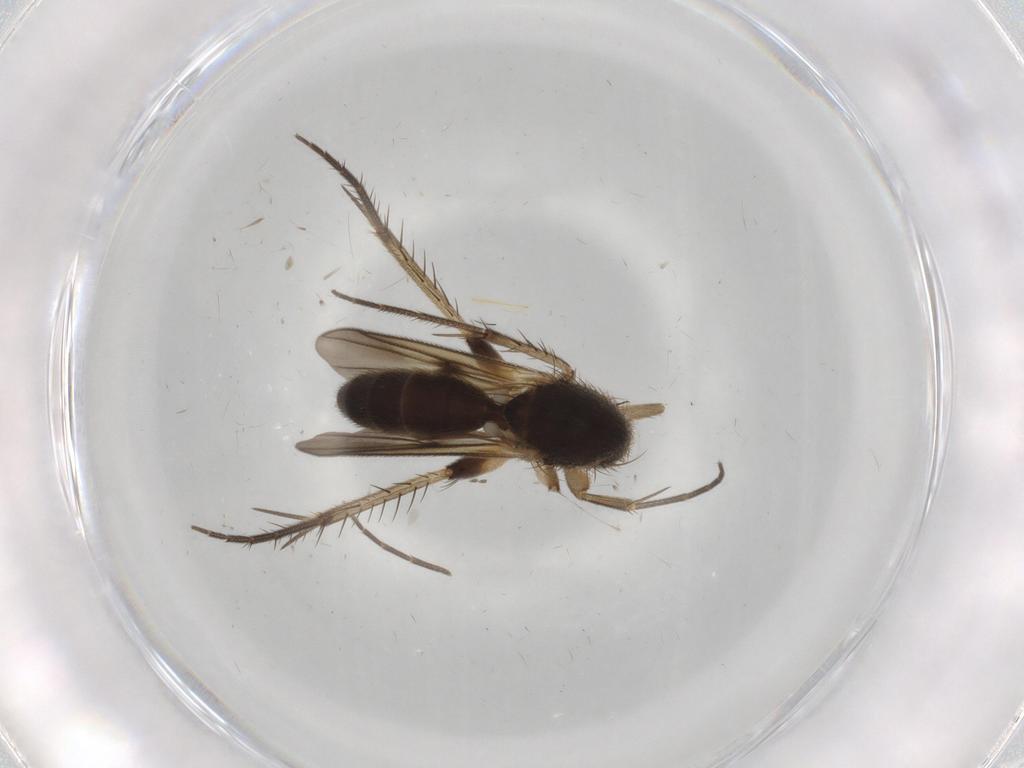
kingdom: Animalia
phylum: Arthropoda
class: Insecta
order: Diptera
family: Mycetophilidae
